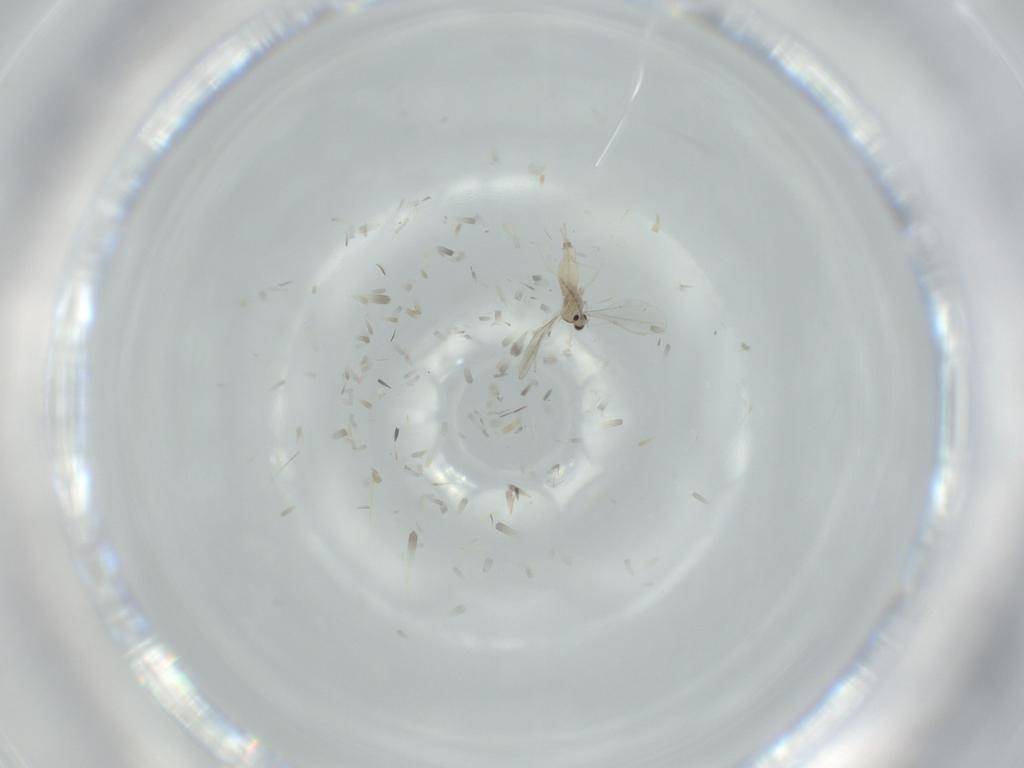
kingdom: Animalia
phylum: Arthropoda
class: Insecta
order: Diptera
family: Cecidomyiidae
